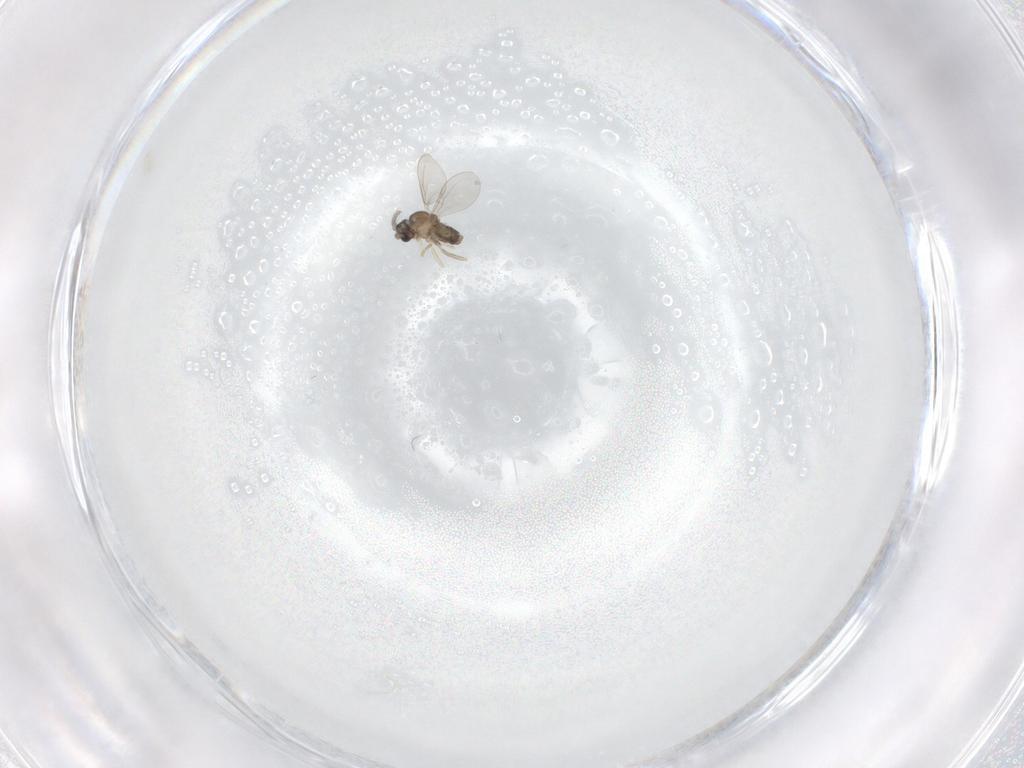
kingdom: Animalia
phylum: Arthropoda
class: Insecta
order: Diptera
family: Cecidomyiidae
